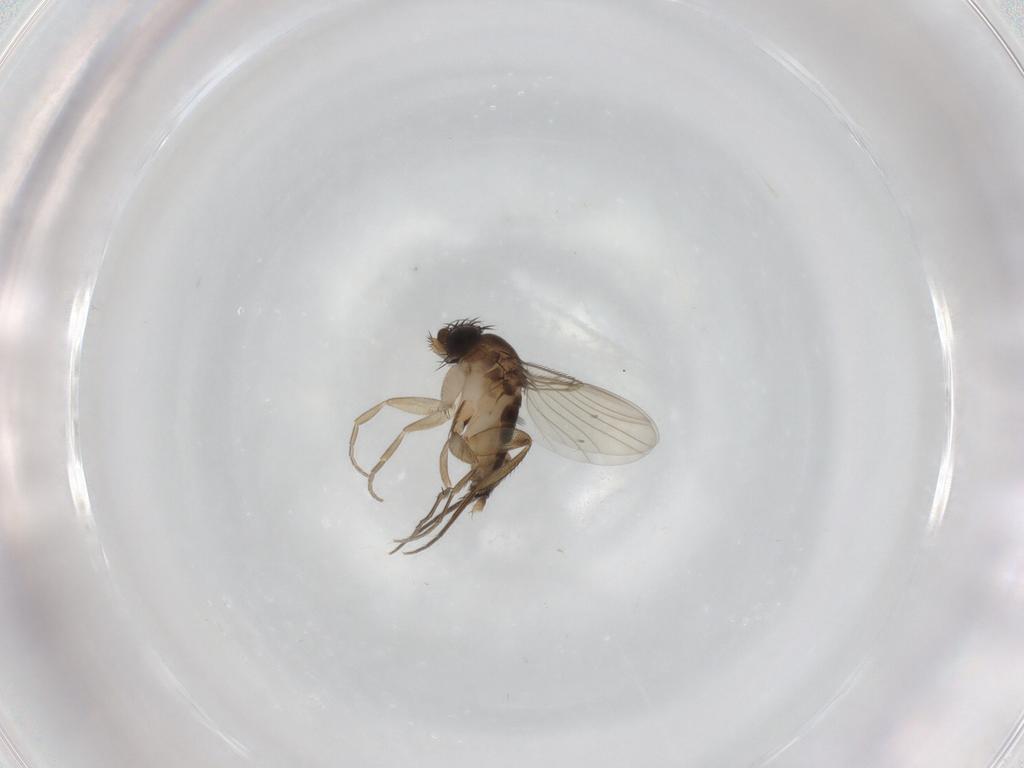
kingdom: Animalia
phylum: Arthropoda
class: Insecta
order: Diptera
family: Phoridae
